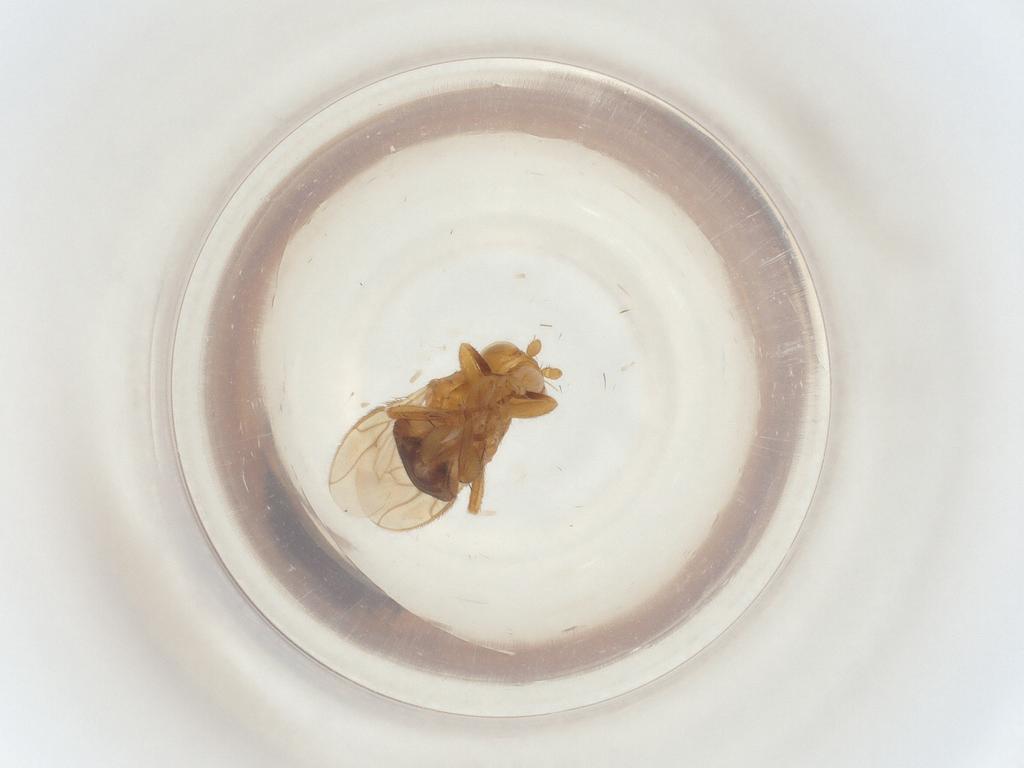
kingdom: Animalia
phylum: Arthropoda
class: Insecta
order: Diptera
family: Sphaeroceridae
